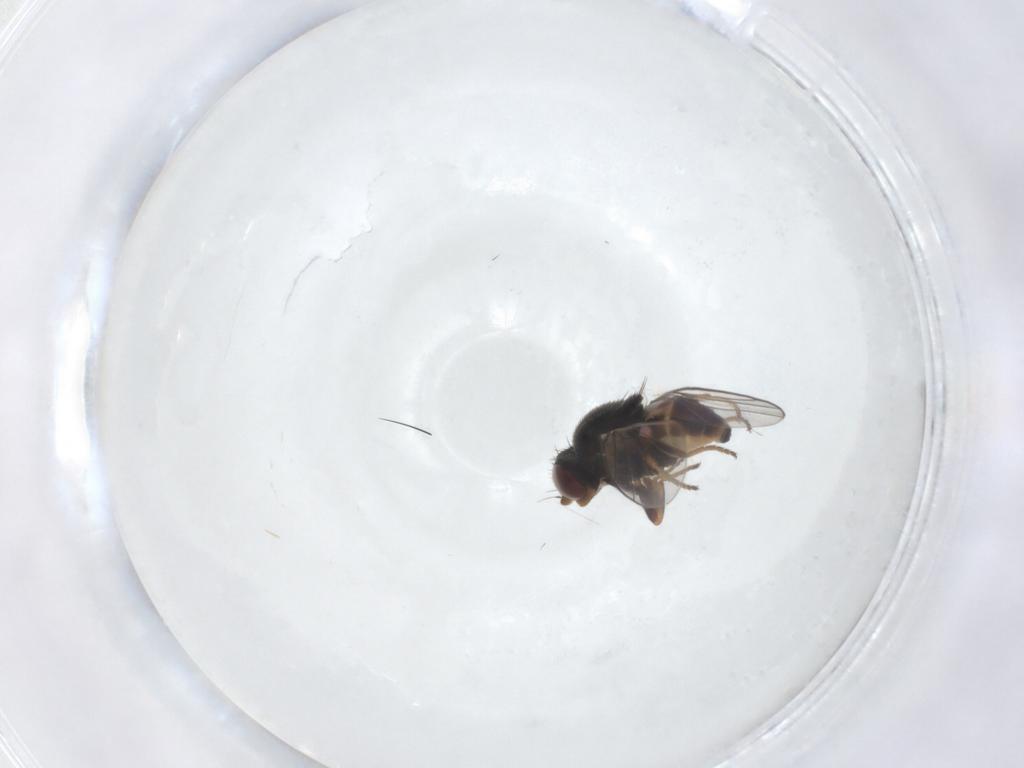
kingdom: Animalia
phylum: Arthropoda
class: Insecta
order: Diptera
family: Chloropidae
